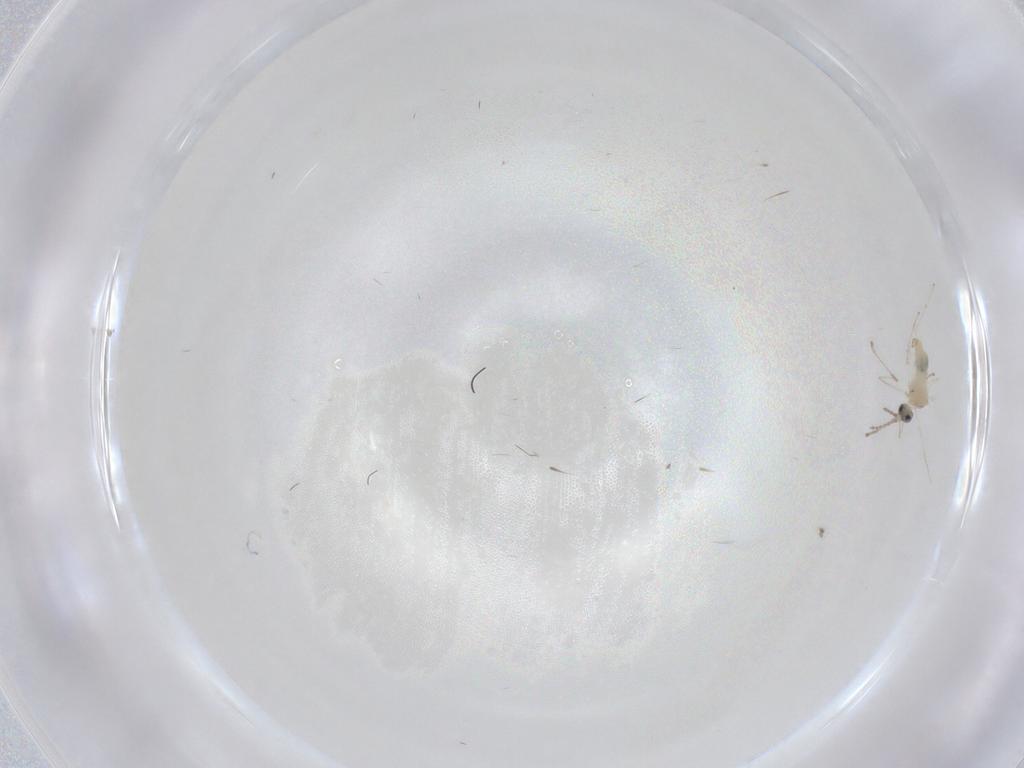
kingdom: Animalia
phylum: Arthropoda
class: Insecta
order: Diptera
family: Cecidomyiidae
